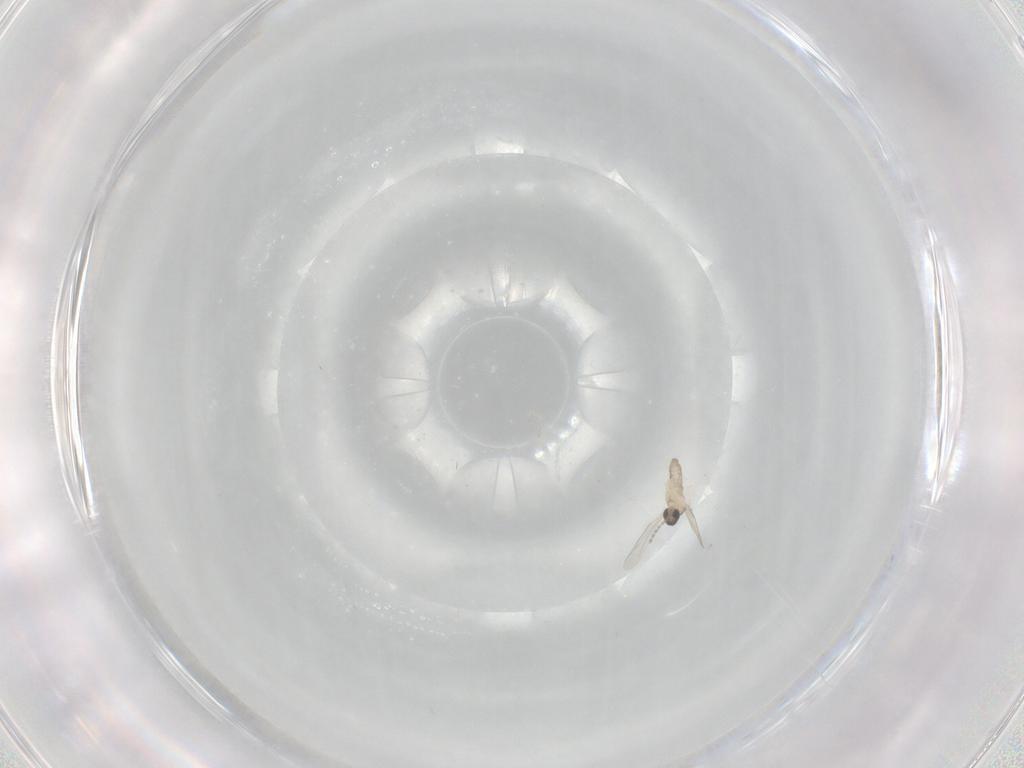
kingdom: Animalia
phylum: Arthropoda
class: Insecta
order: Diptera
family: Cecidomyiidae
